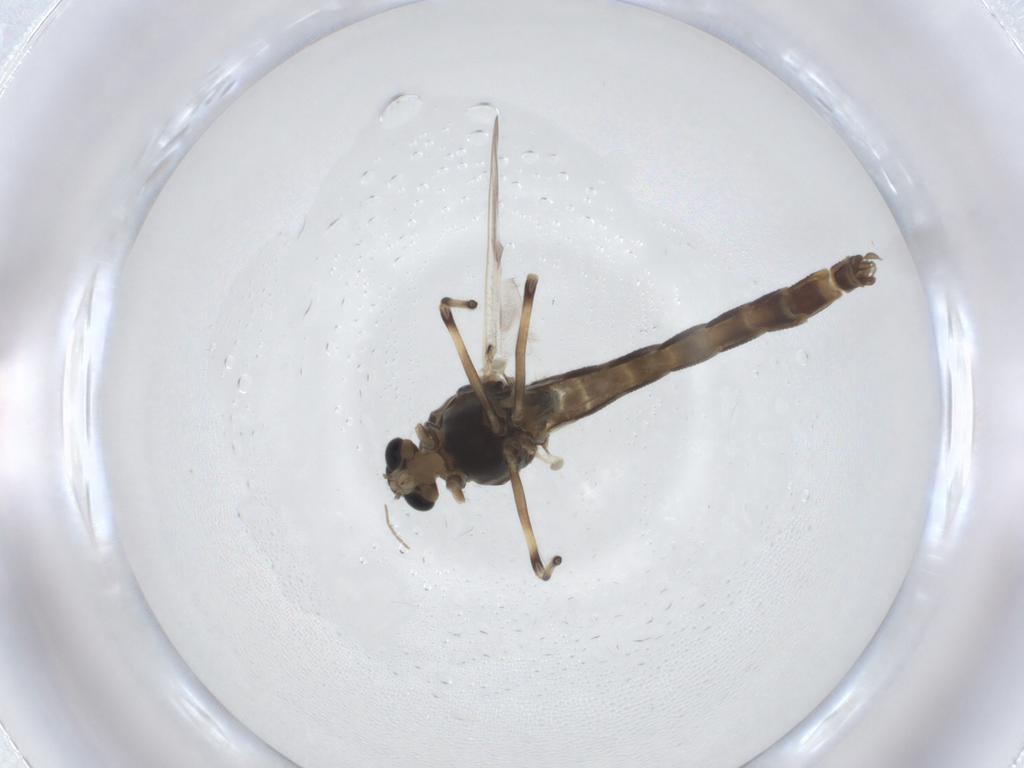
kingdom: Animalia
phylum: Arthropoda
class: Insecta
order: Diptera
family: Chironomidae
